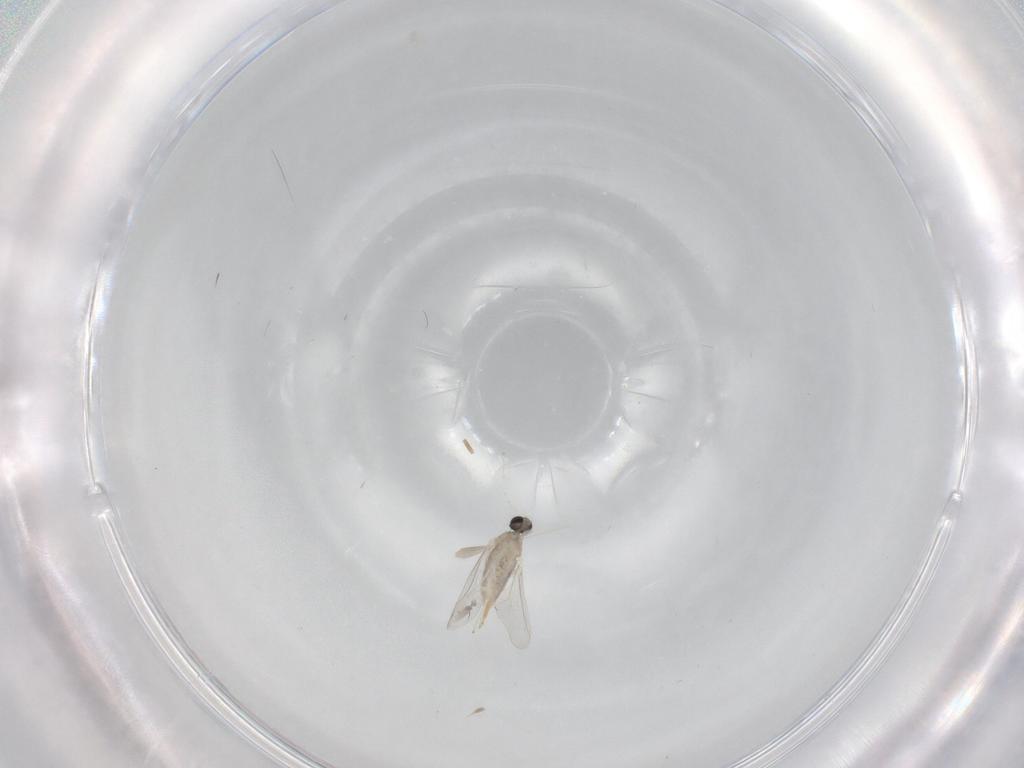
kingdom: Animalia
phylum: Arthropoda
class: Insecta
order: Diptera
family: Cecidomyiidae
